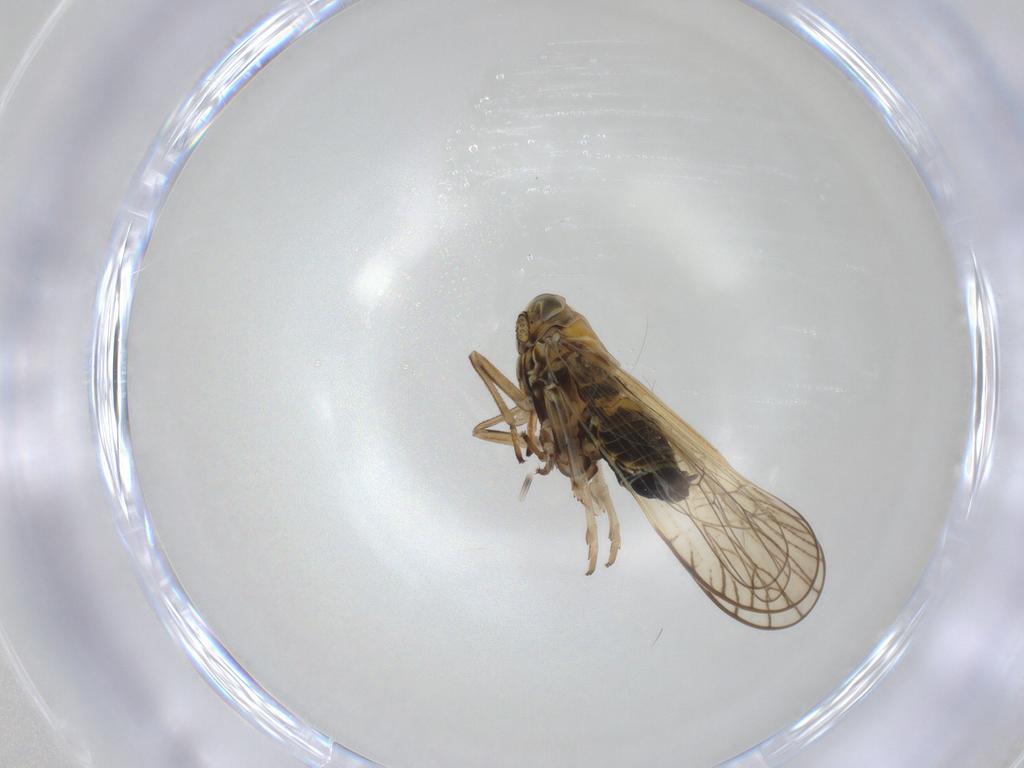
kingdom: Animalia
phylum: Arthropoda
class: Insecta
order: Hemiptera
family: Delphacidae
